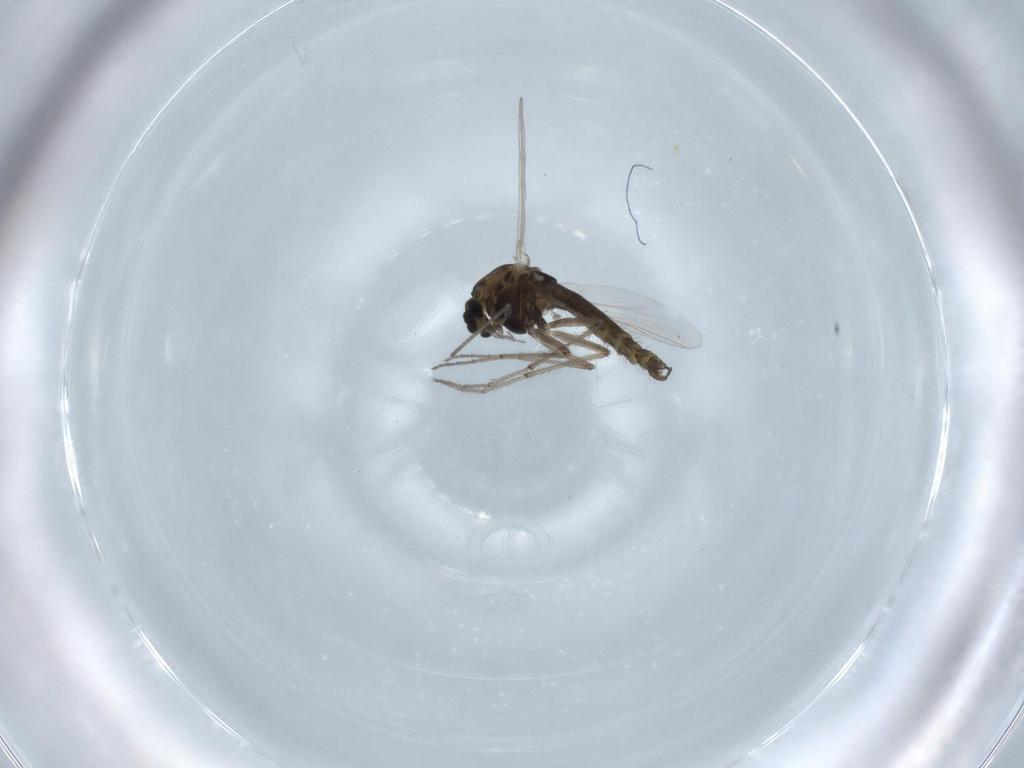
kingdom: Animalia
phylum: Arthropoda
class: Insecta
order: Diptera
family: Chironomidae
